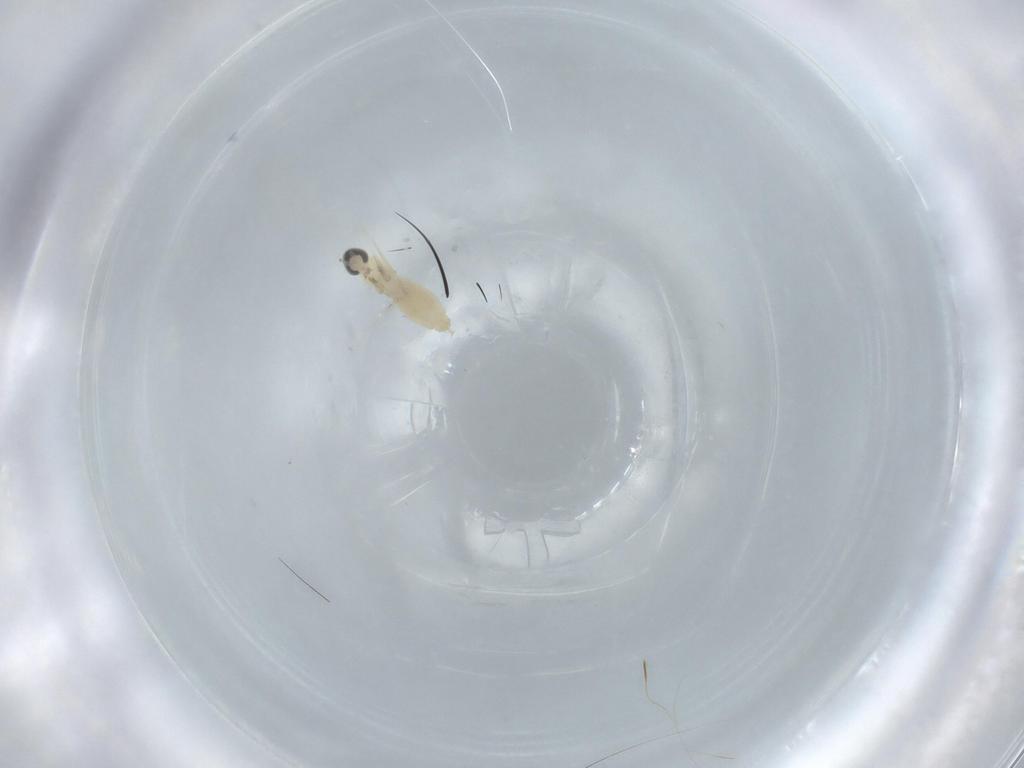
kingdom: Animalia
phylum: Arthropoda
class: Insecta
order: Diptera
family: Cecidomyiidae
